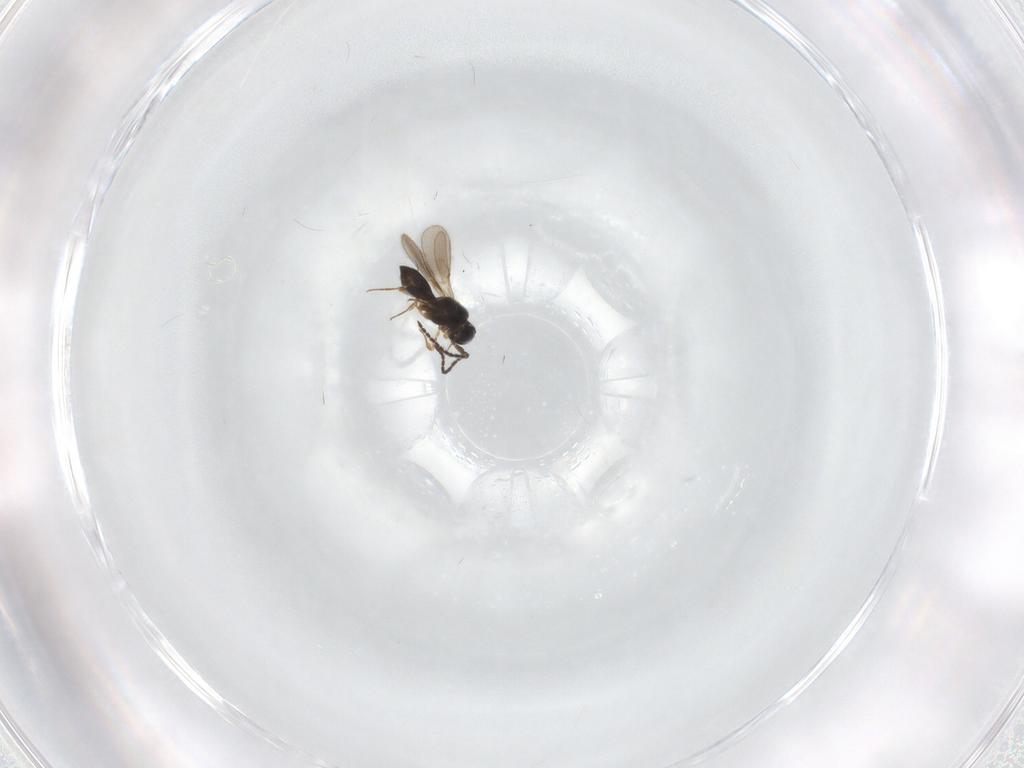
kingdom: Animalia
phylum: Arthropoda
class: Insecta
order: Hymenoptera
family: Scelionidae
